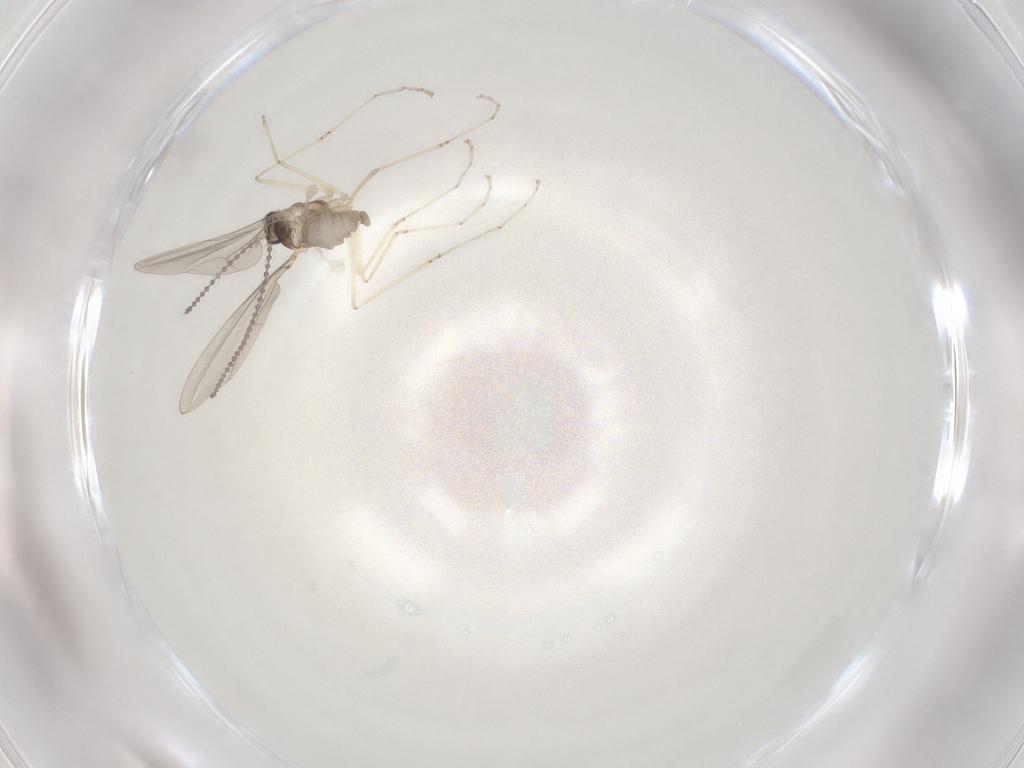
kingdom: Animalia
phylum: Arthropoda
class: Insecta
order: Diptera
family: Cecidomyiidae
